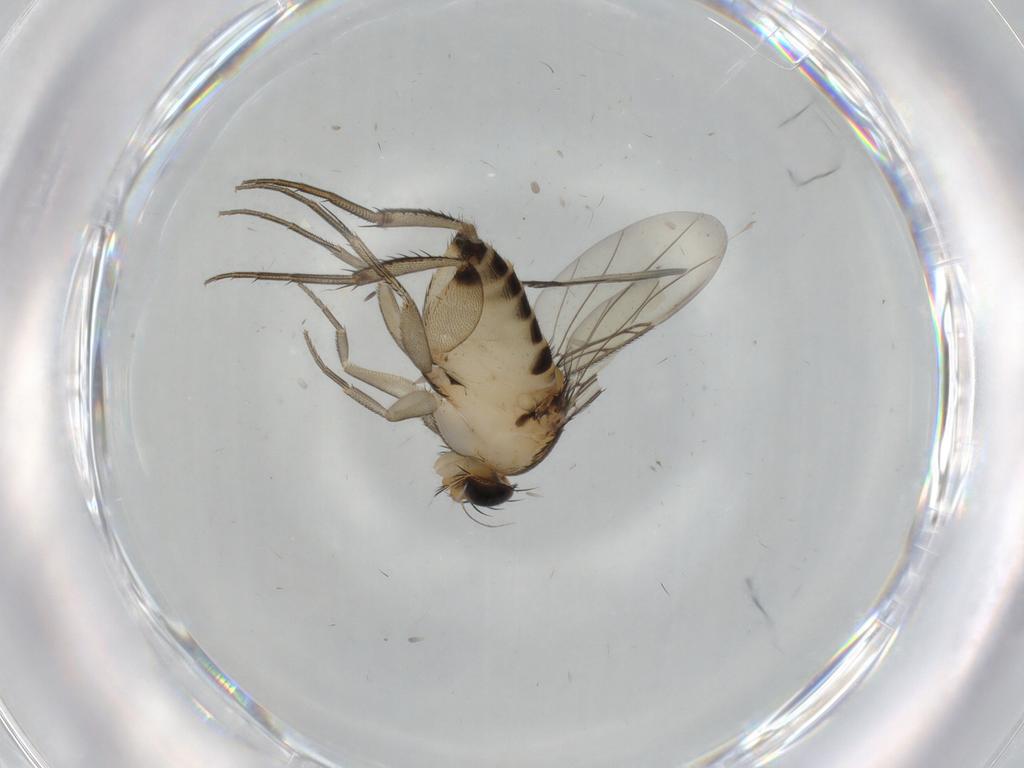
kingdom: Animalia
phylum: Arthropoda
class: Insecta
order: Diptera
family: Phoridae
